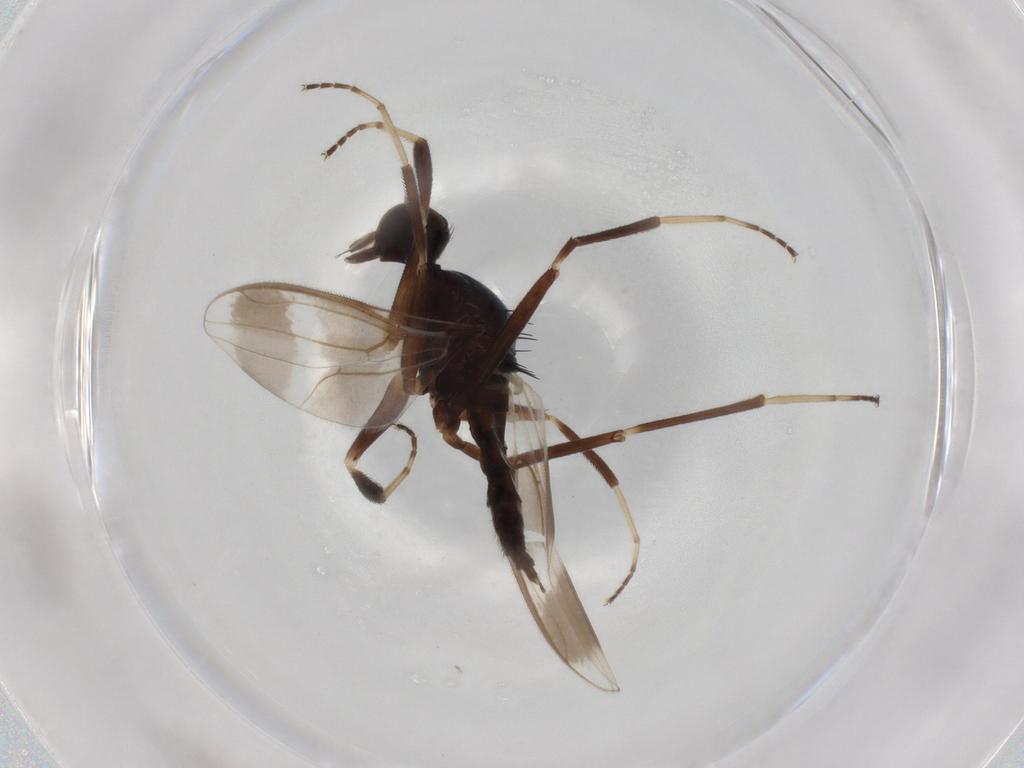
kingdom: Animalia
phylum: Arthropoda
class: Insecta
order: Diptera
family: Hybotidae
